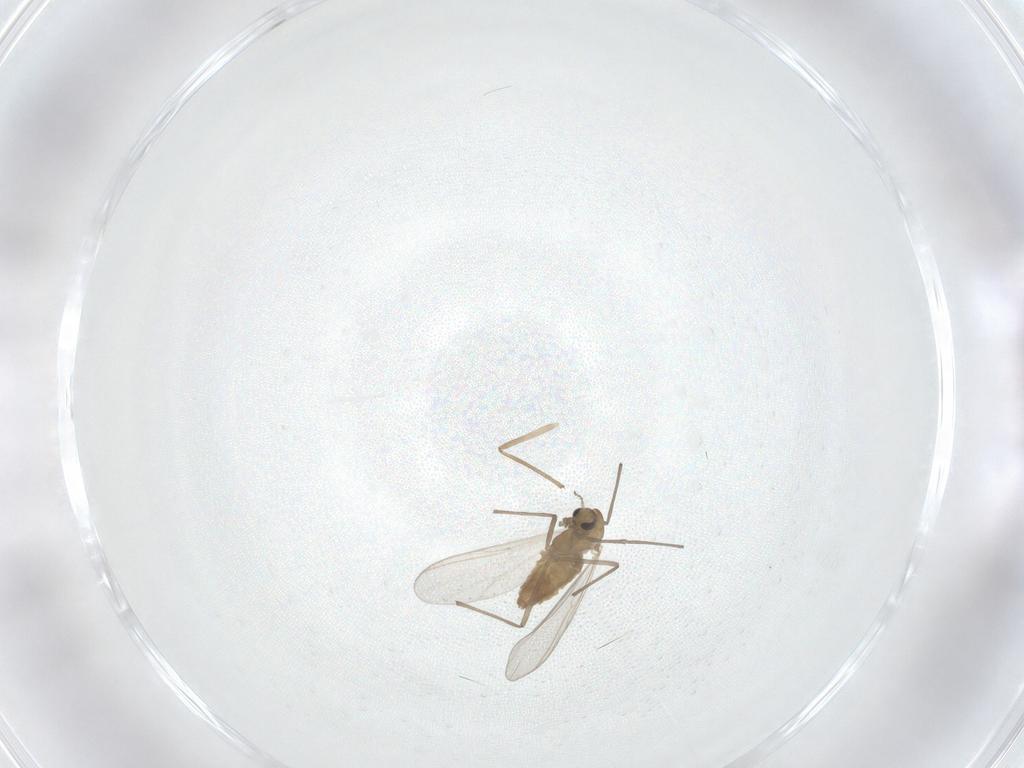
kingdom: Animalia
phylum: Arthropoda
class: Insecta
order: Diptera
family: Chironomidae
